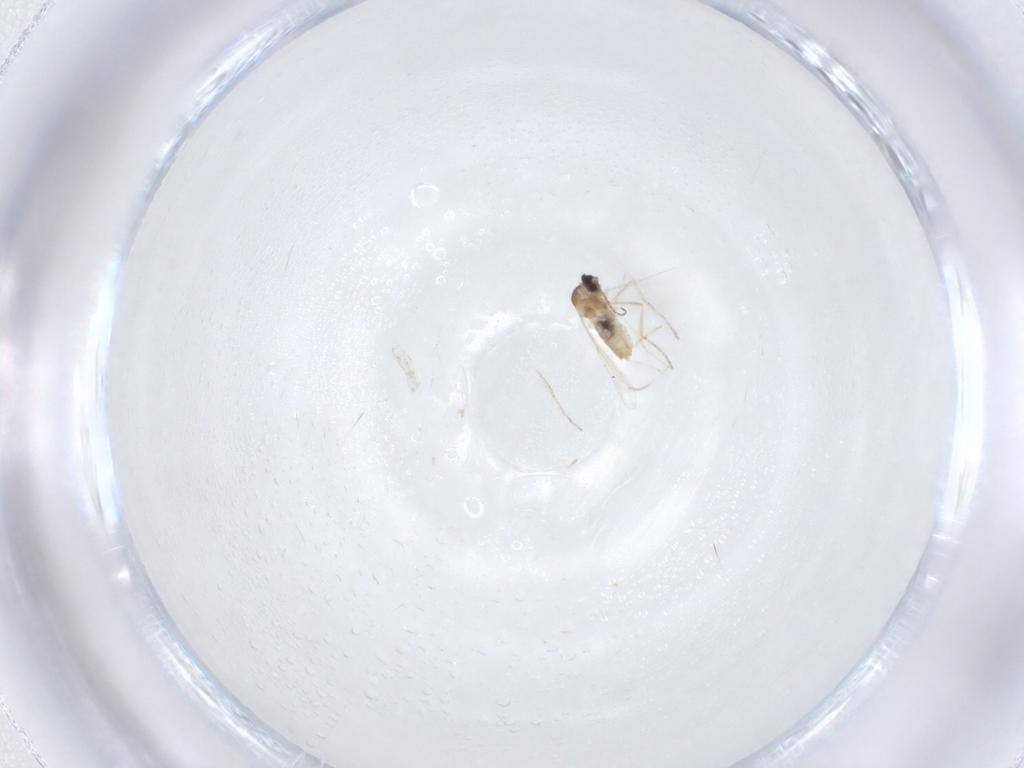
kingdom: Animalia
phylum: Arthropoda
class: Insecta
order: Diptera
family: Cecidomyiidae
